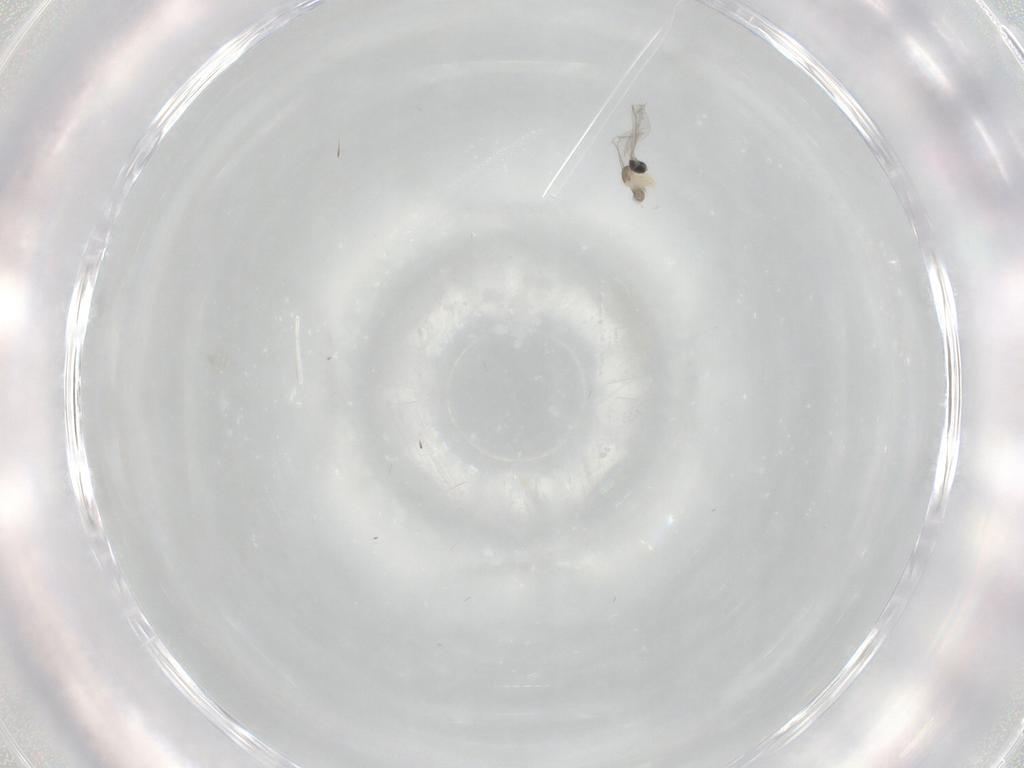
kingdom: Animalia
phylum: Arthropoda
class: Insecta
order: Diptera
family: Cecidomyiidae
